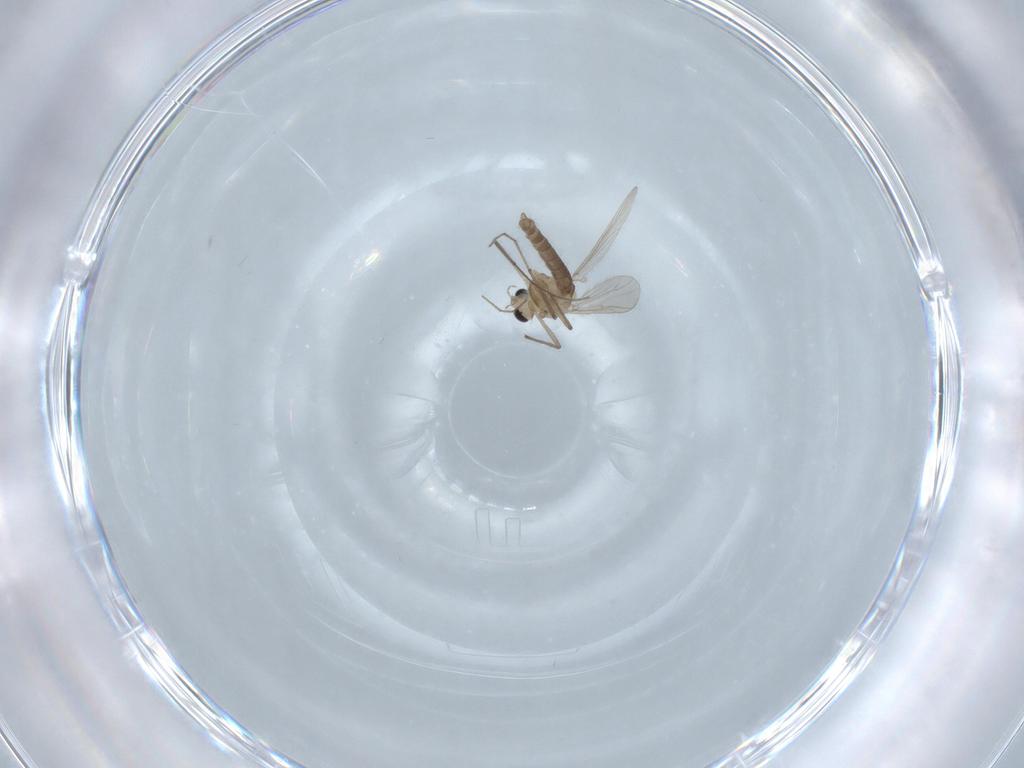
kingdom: Animalia
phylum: Arthropoda
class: Insecta
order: Diptera
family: Chironomidae
